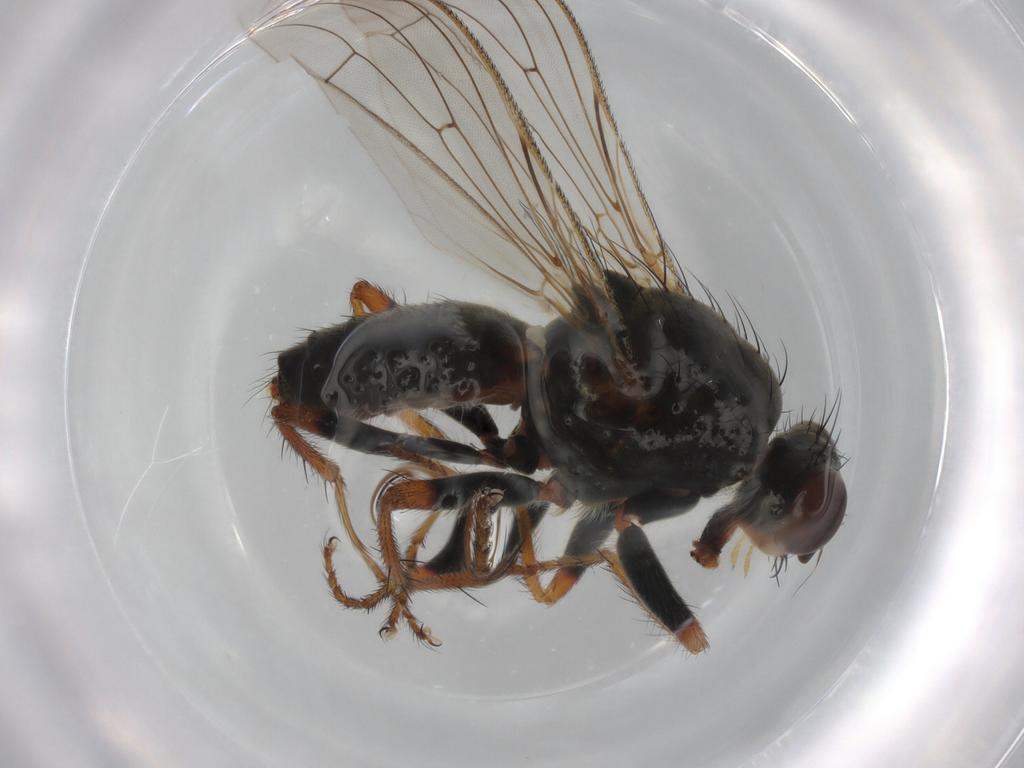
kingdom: Animalia
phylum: Arthropoda
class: Insecta
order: Diptera
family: Scathophagidae
